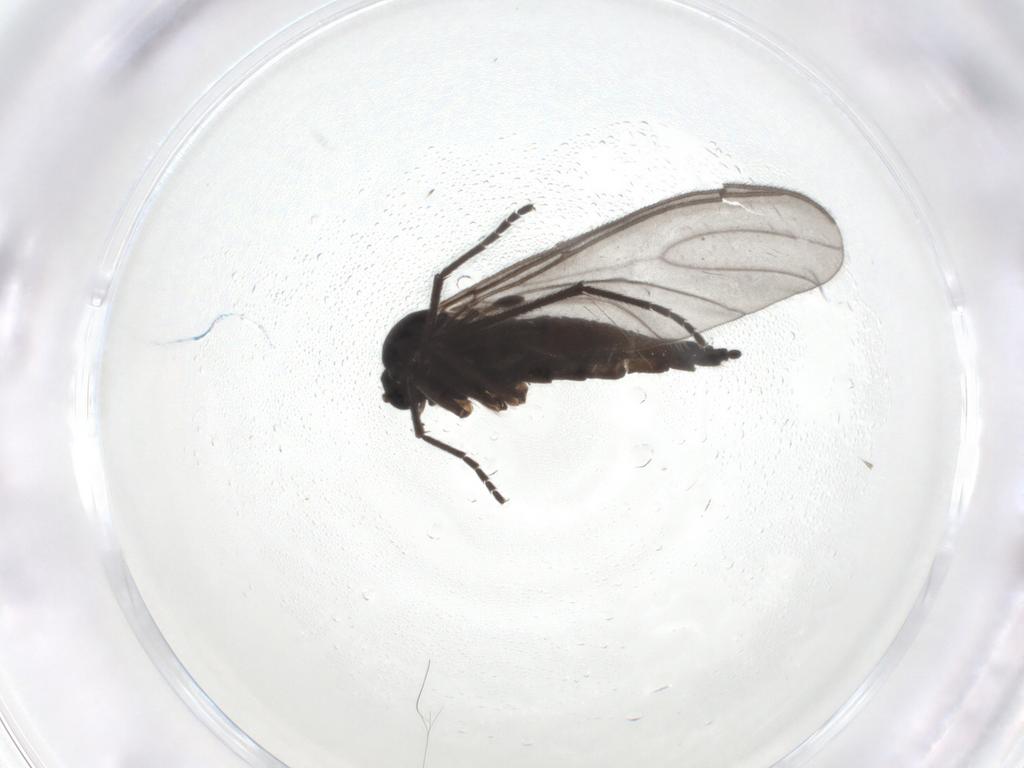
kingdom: Animalia
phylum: Arthropoda
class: Insecta
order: Diptera
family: Sciaridae
